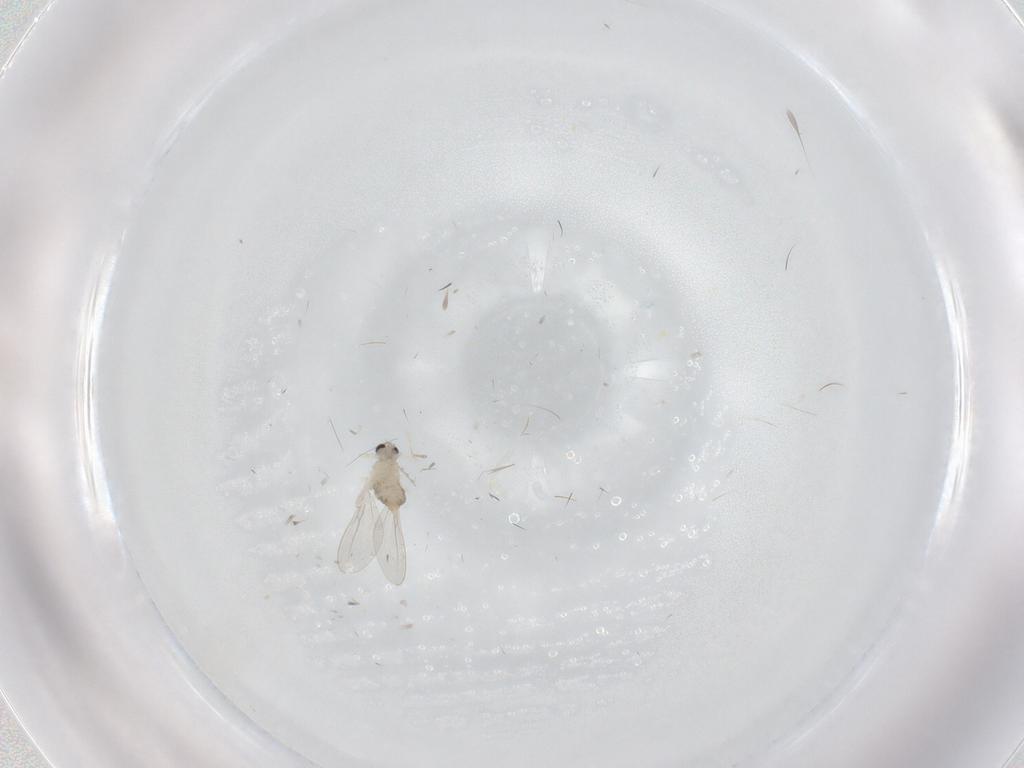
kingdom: Animalia
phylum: Arthropoda
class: Insecta
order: Diptera
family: Cecidomyiidae
